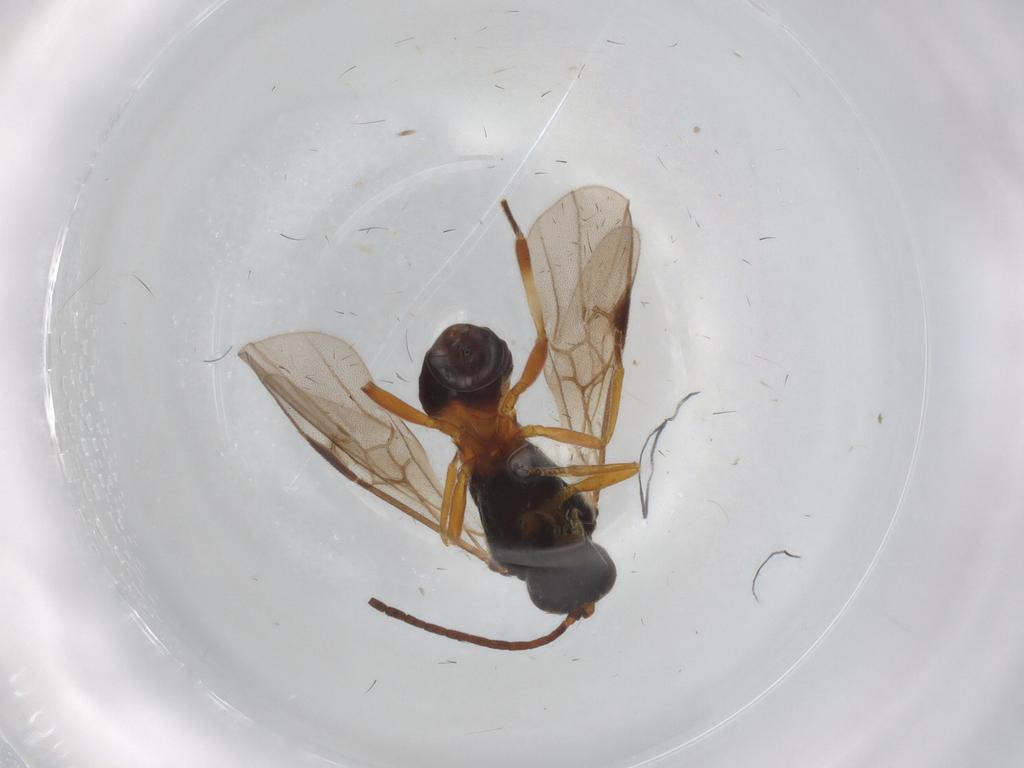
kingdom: Animalia
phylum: Arthropoda
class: Insecta
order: Hymenoptera
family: Braconidae
